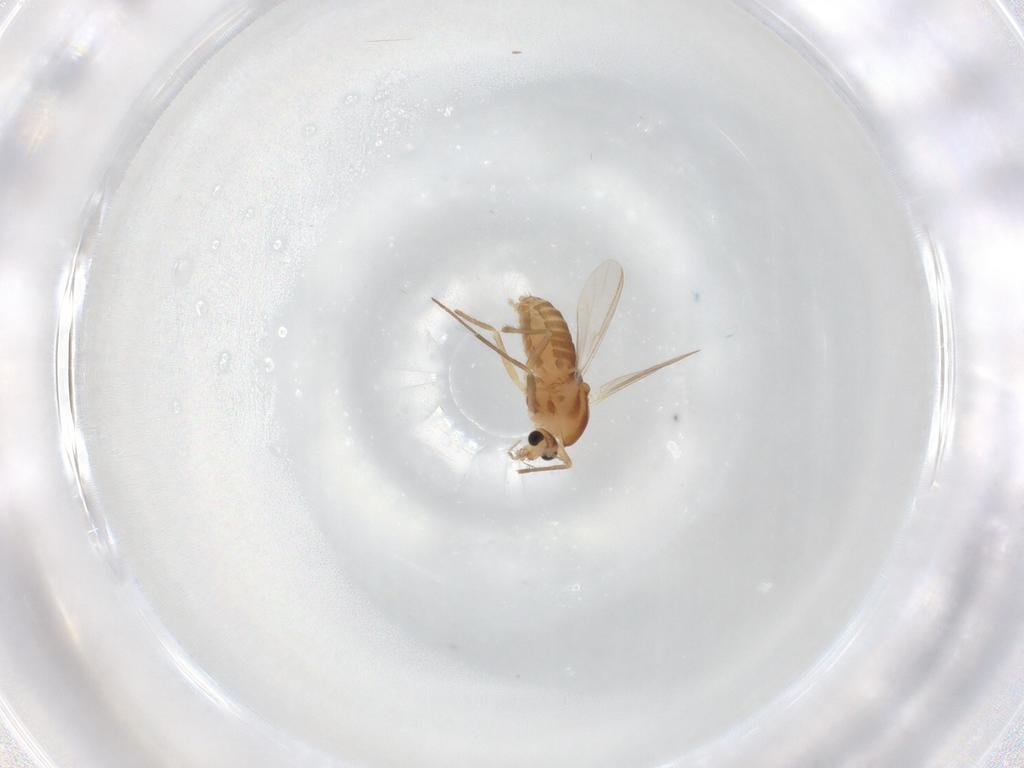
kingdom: Animalia
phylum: Arthropoda
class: Insecta
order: Diptera
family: Chironomidae
